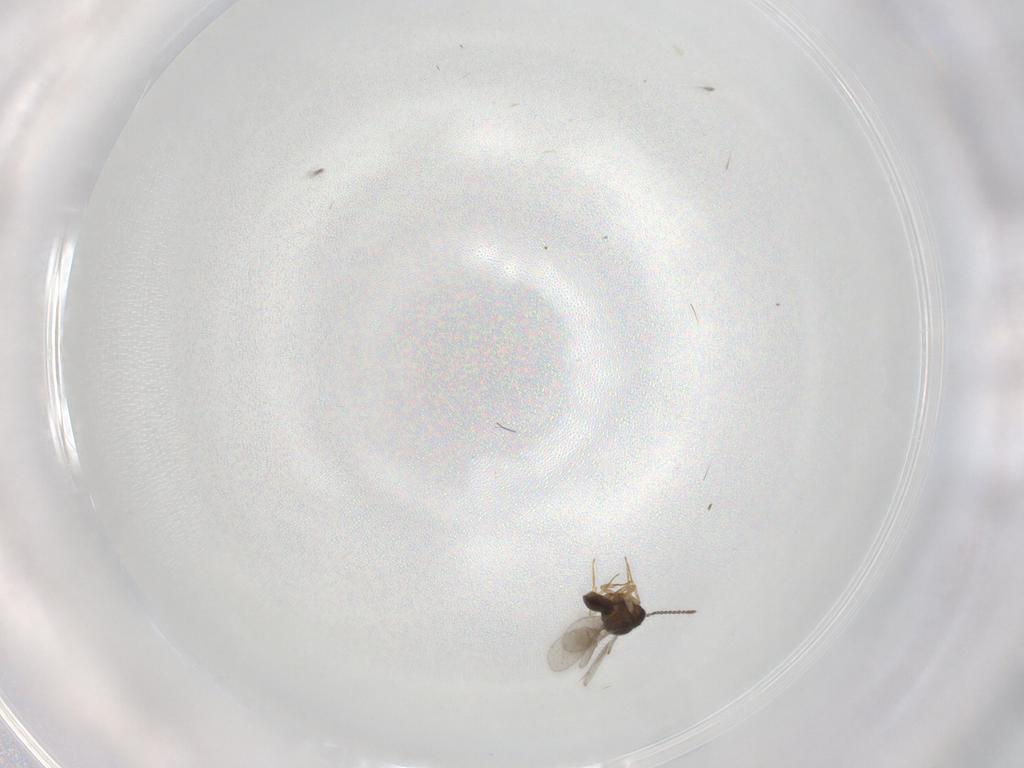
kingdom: Animalia
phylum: Arthropoda
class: Insecta
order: Hymenoptera
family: Scelionidae
